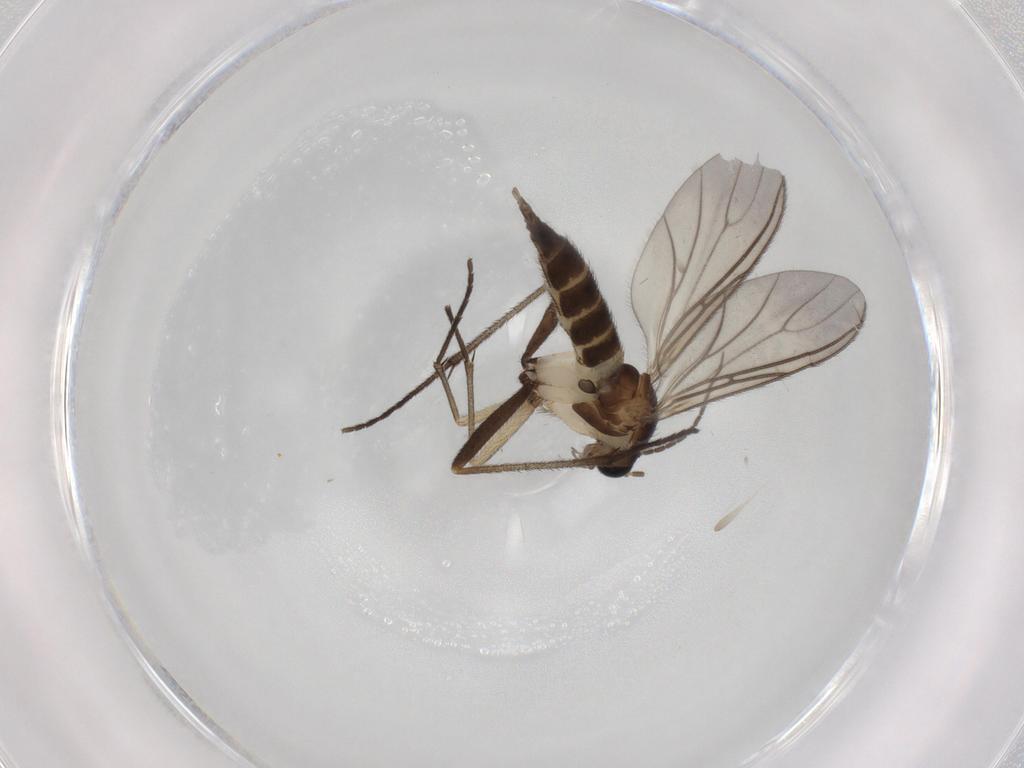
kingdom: Animalia
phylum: Arthropoda
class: Insecta
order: Diptera
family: Sciaridae
